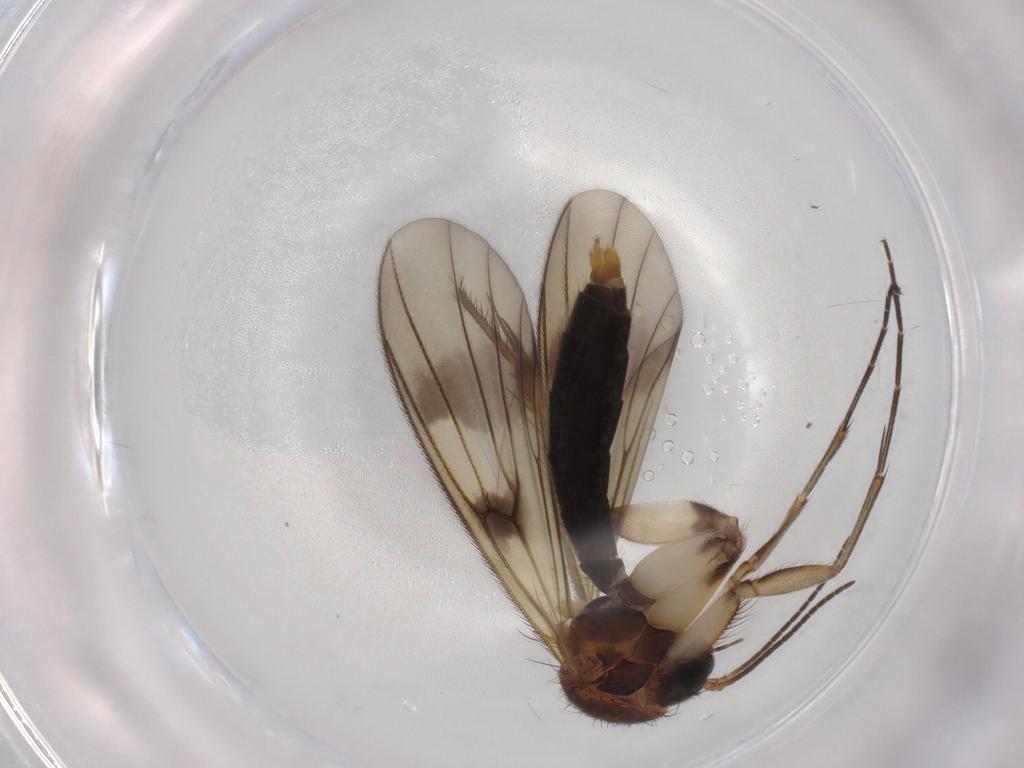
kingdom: Animalia
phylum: Arthropoda
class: Insecta
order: Diptera
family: Mycetophilidae
